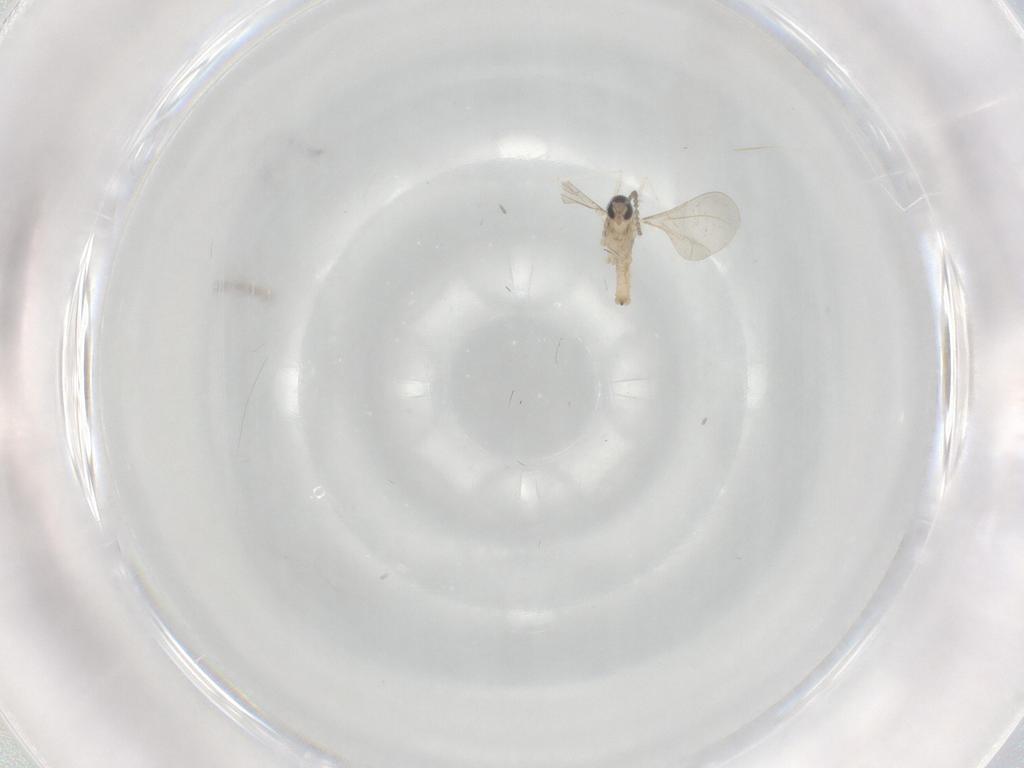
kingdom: Animalia
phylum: Arthropoda
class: Insecta
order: Diptera
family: Cecidomyiidae
